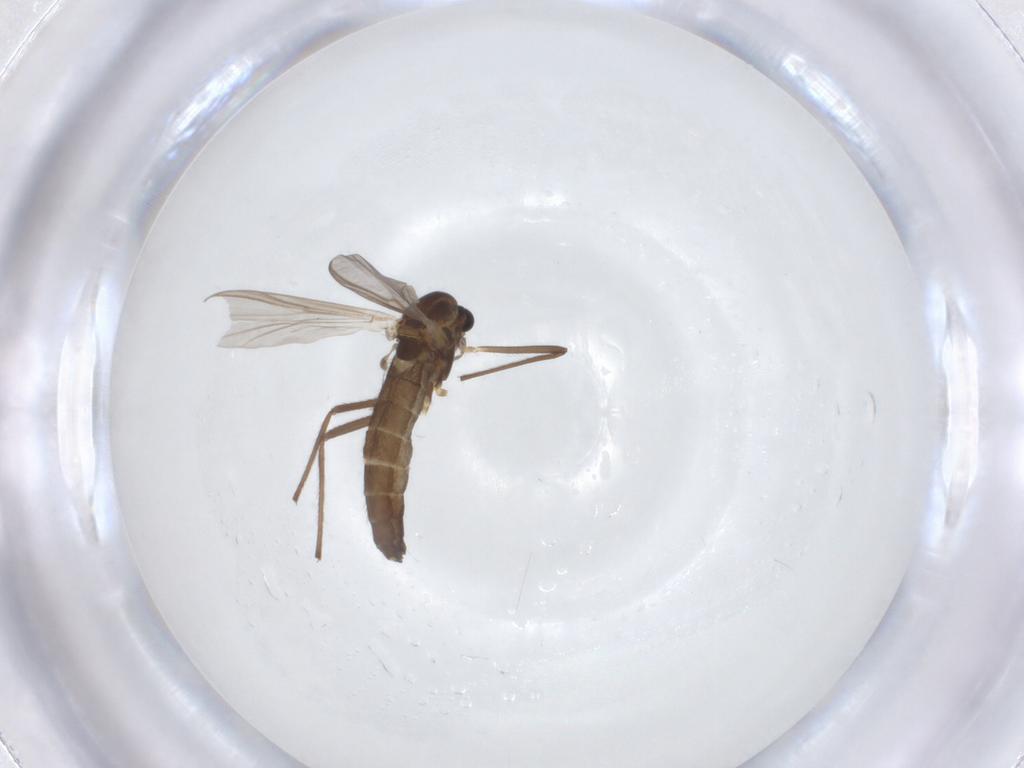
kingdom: Animalia
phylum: Arthropoda
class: Insecta
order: Diptera
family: Chironomidae
